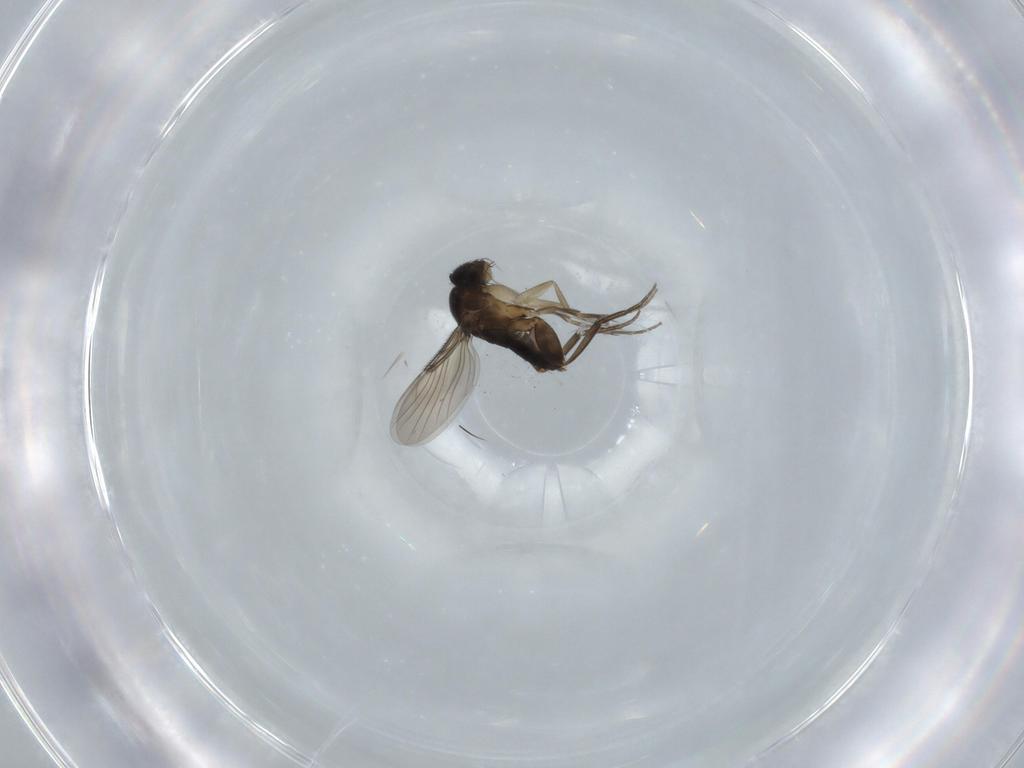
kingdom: Animalia
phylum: Arthropoda
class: Insecta
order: Diptera
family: Phoridae
